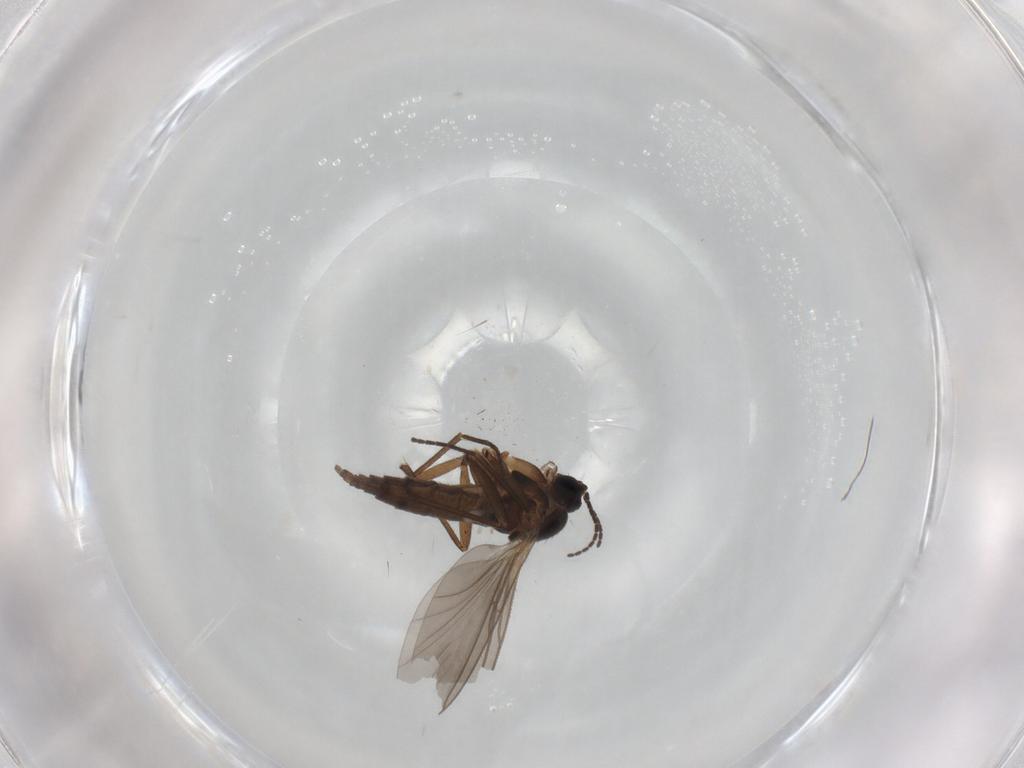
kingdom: Animalia
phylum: Arthropoda
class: Insecta
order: Diptera
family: Sciaridae
